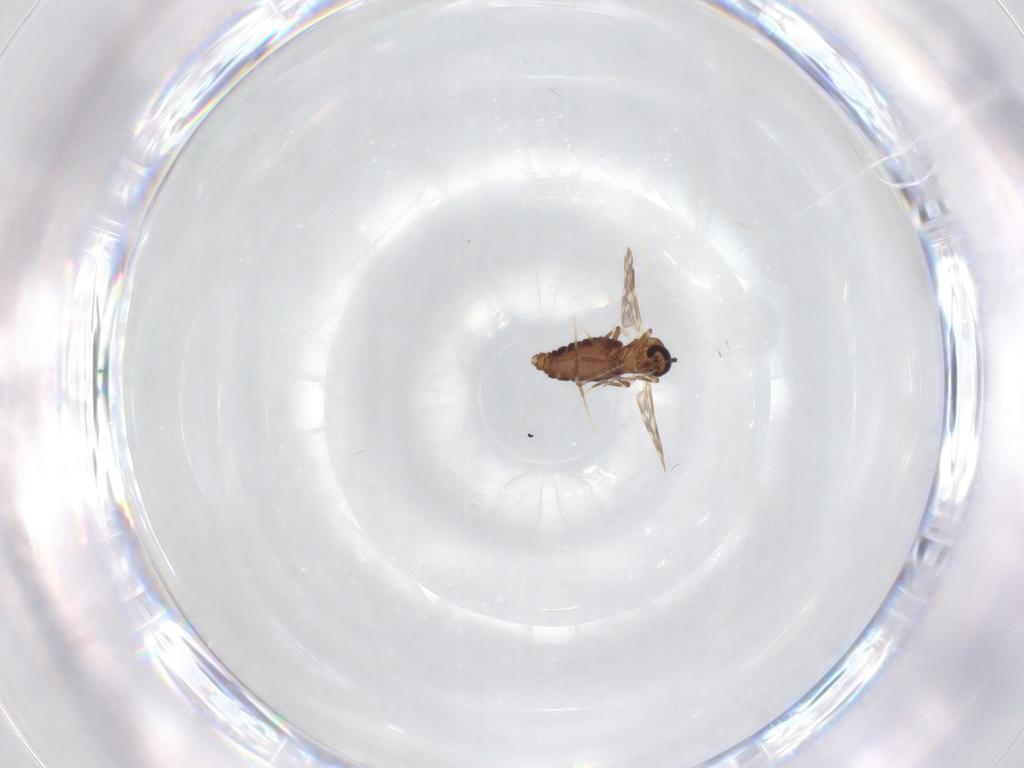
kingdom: Animalia
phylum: Arthropoda
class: Insecta
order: Diptera
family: Ceratopogonidae
